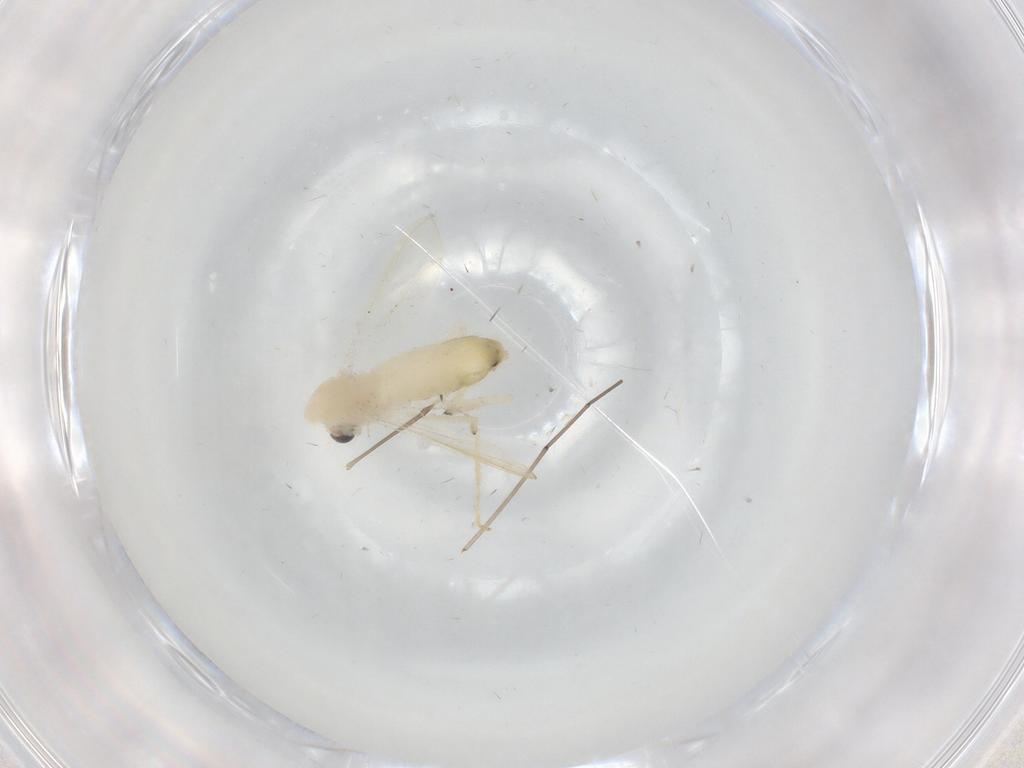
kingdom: Animalia
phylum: Arthropoda
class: Insecta
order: Diptera
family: Chironomidae
